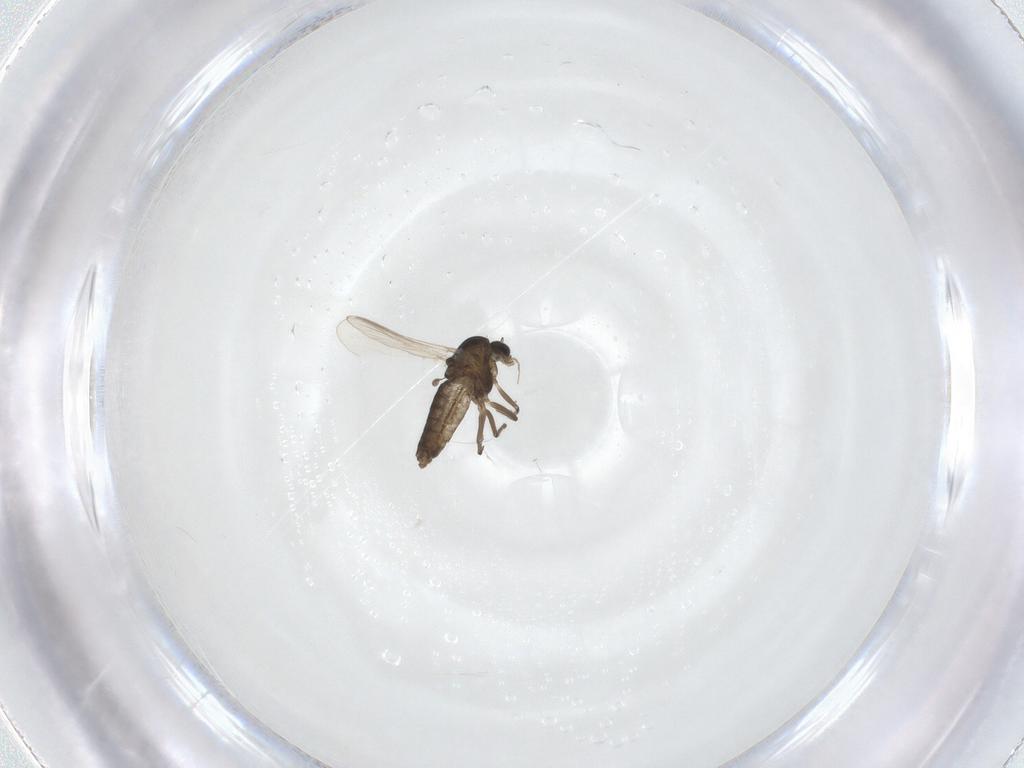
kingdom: Animalia
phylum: Arthropoda
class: Insecta
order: Diptera
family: Chironomidae
